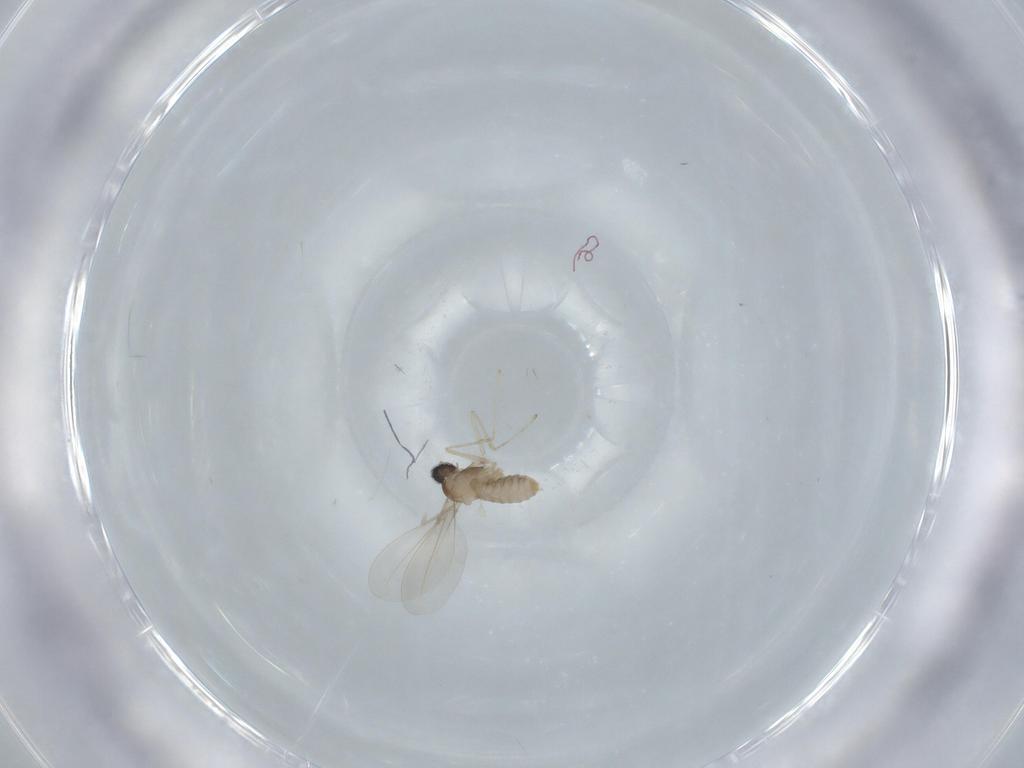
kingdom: Animalia
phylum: Arthropoda
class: Insecta
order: Diptera
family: Cecidomyiidae
